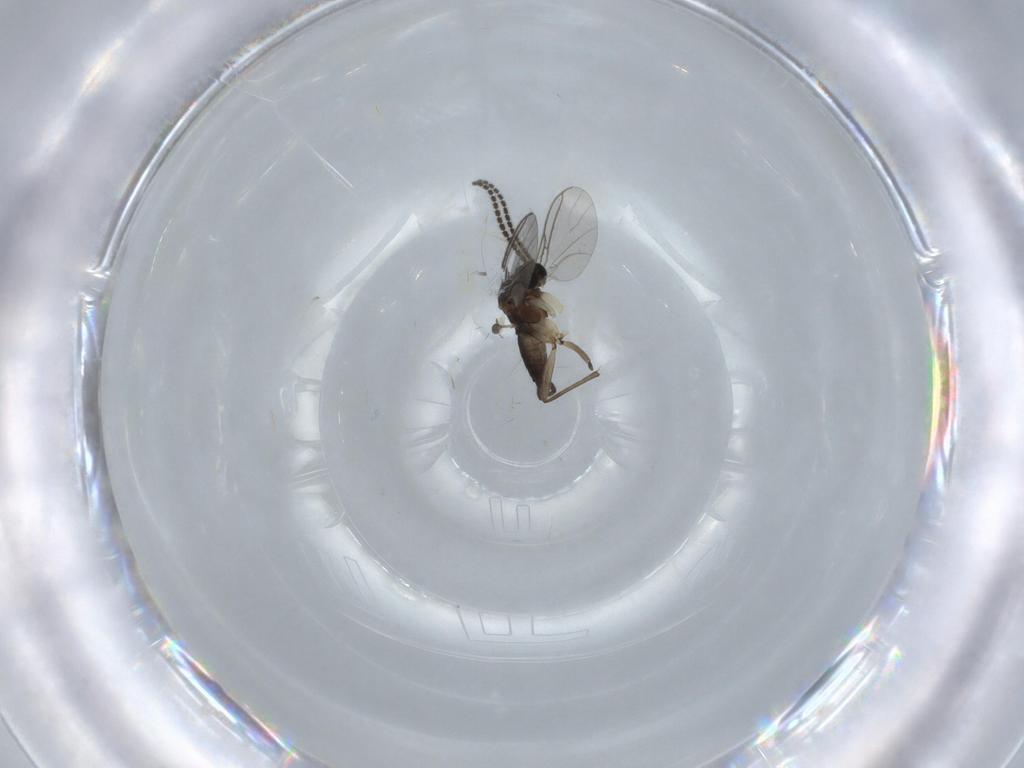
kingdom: Animalia
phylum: Arthropoda
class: Insecta
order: Diptera
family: Sciaridae
